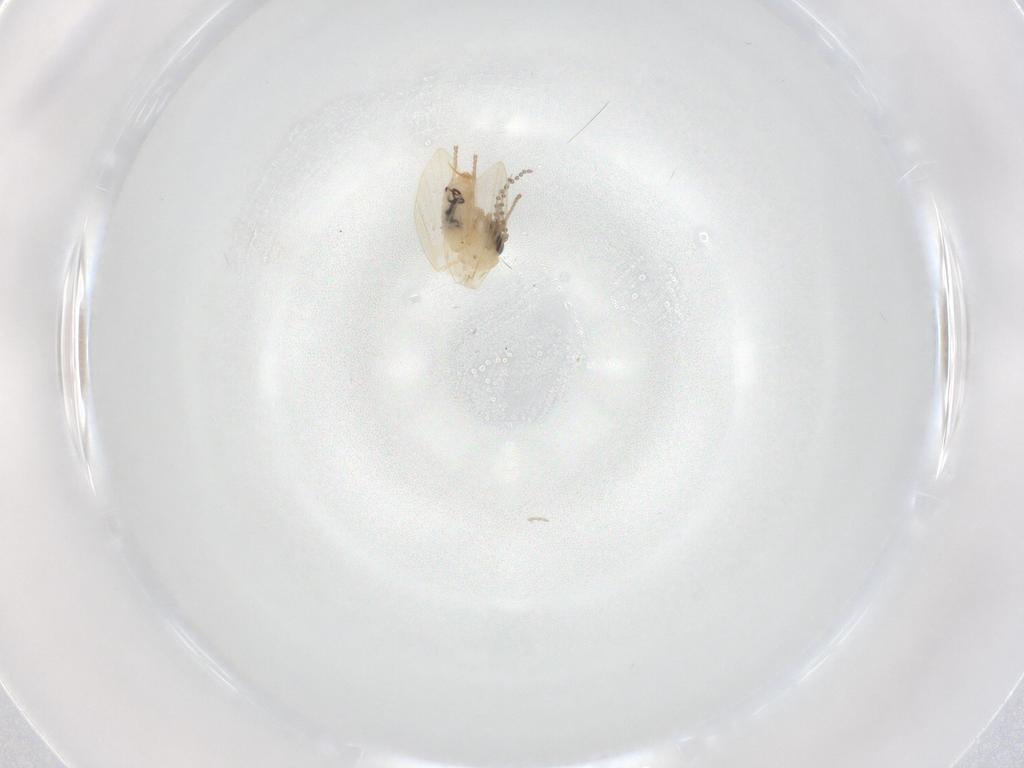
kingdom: Animalia
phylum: Arthropoda
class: Insecta
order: Diptera
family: Psychodidae
